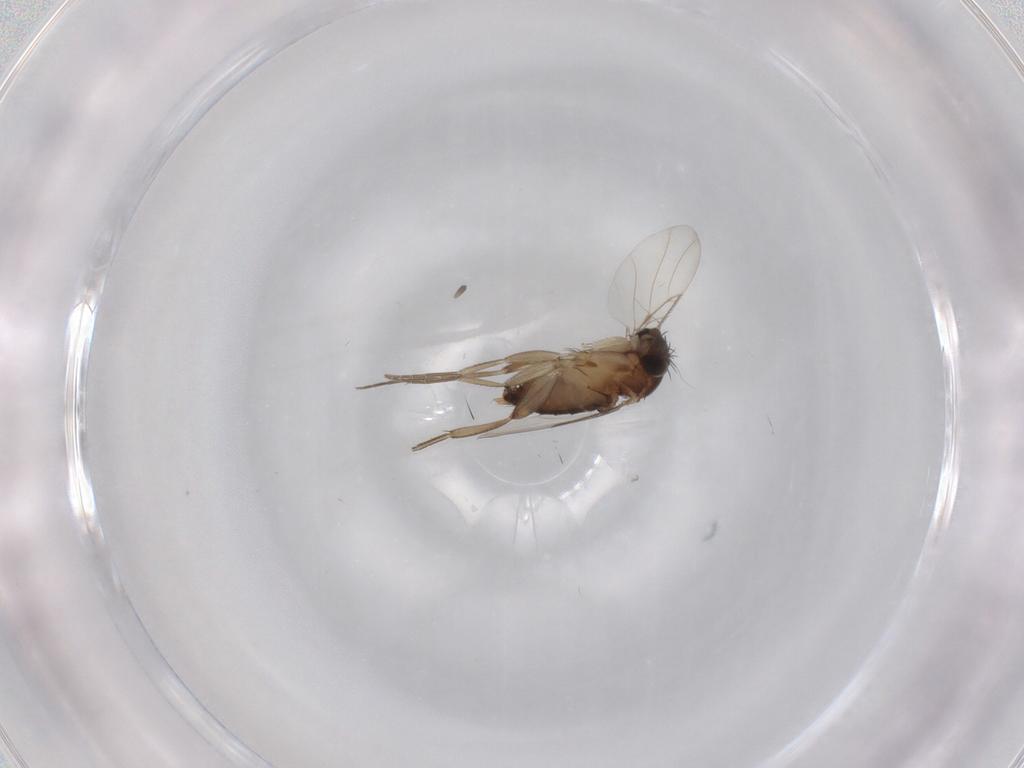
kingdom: Animalia
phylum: Arthropoda
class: Insecta
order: Diptera
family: Phoridae
